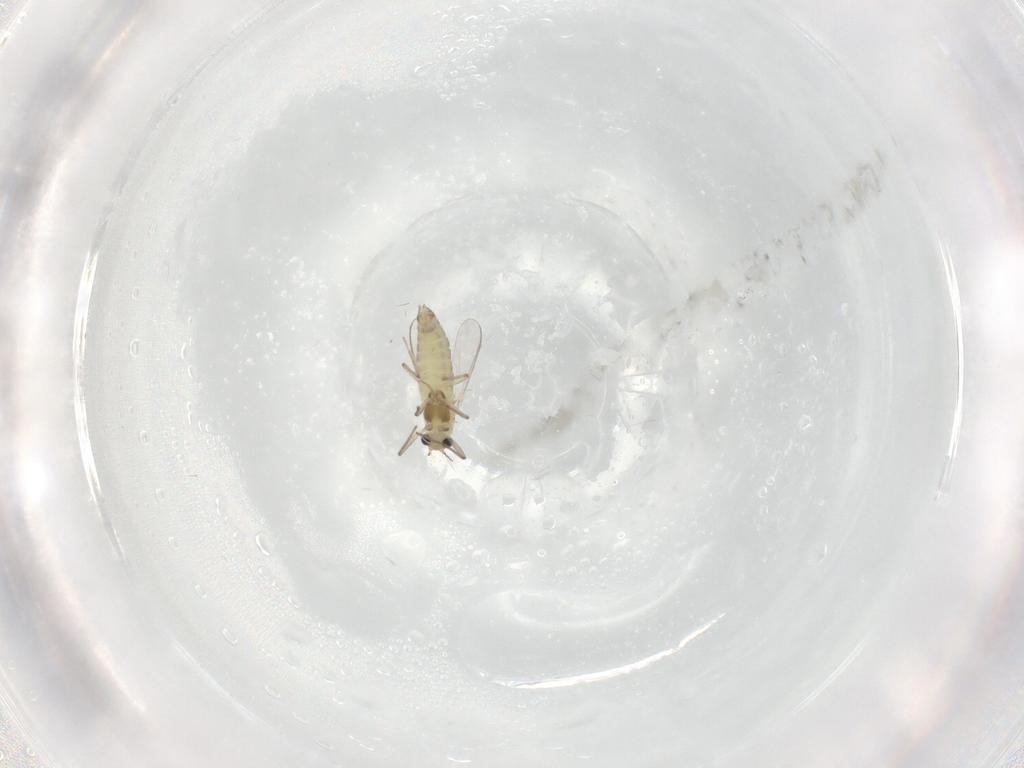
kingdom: Animalia
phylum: Arthropoda
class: Insecta
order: Diptera
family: Chironomidae
